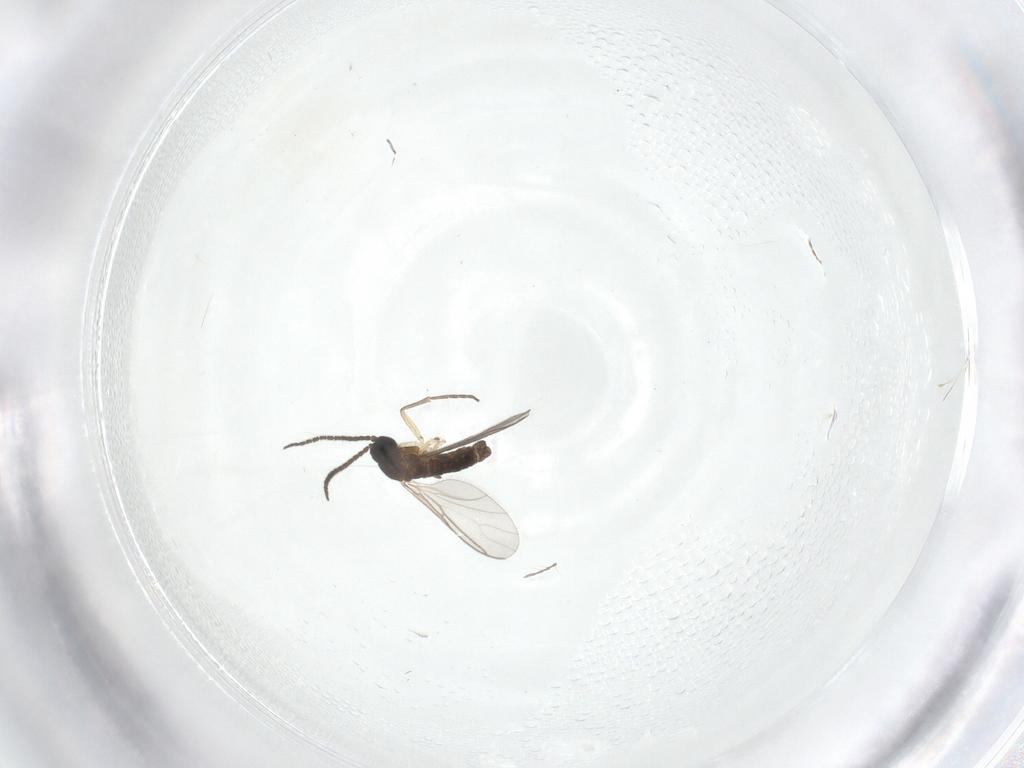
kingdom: Animalia
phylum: Arthropoda
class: Insecta
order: Diptera
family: Sciaridae
